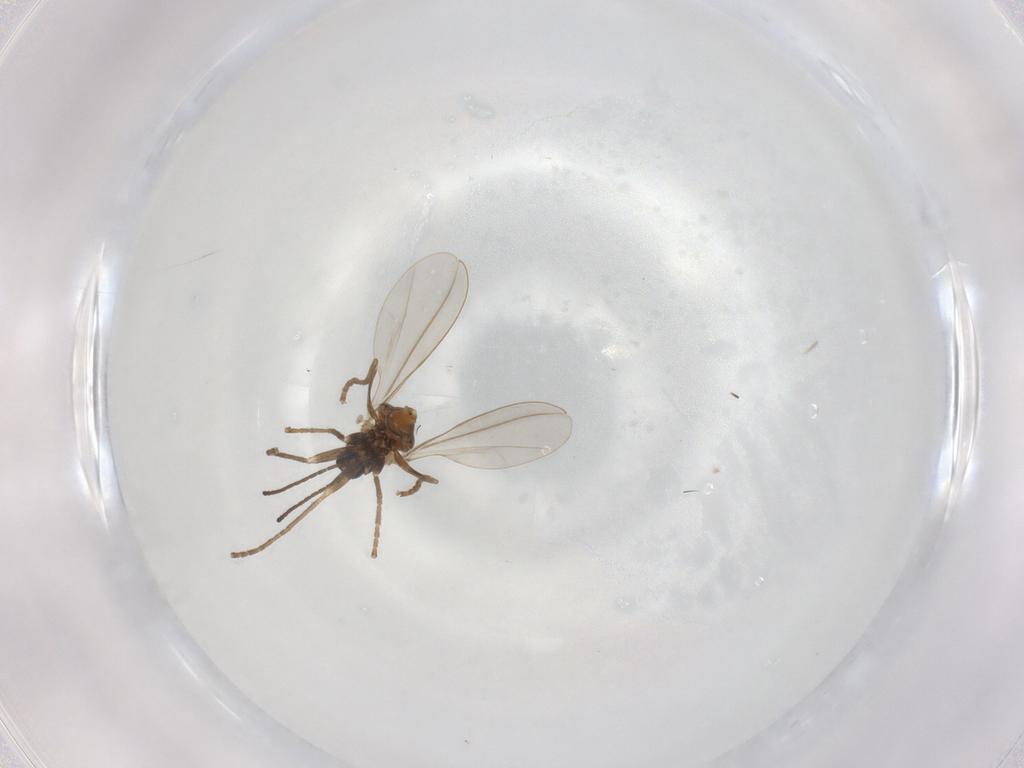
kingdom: Animalia
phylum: Arthropoda
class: Insecta
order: Diptera
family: Cecidomyiidae
